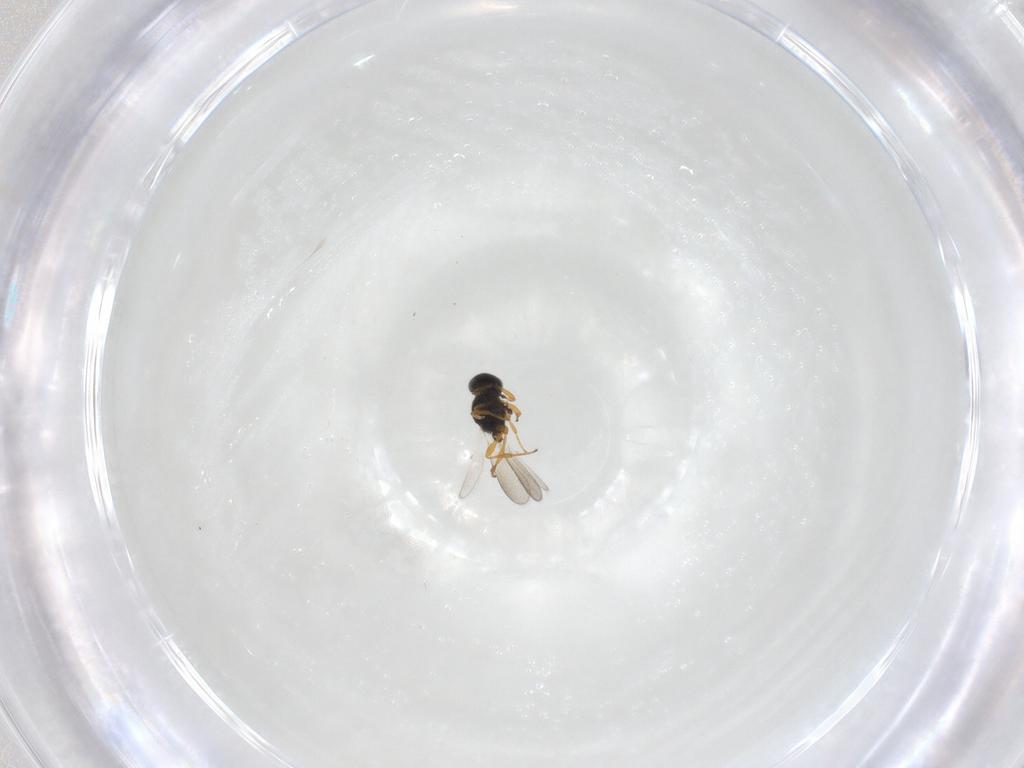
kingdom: Animalia
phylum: Arthropoda
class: Insecta
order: Hymenoptera
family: Platygastridae
